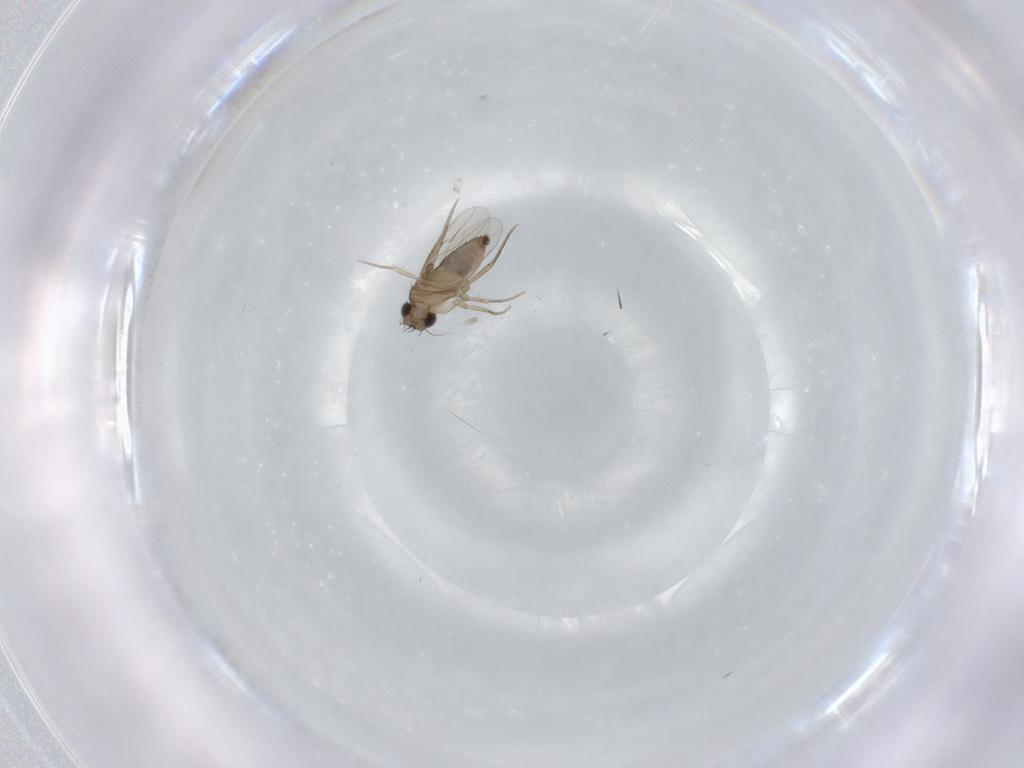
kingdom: Animalia
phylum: Arthropoda
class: Insecta
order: Diptera
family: Phoridae
